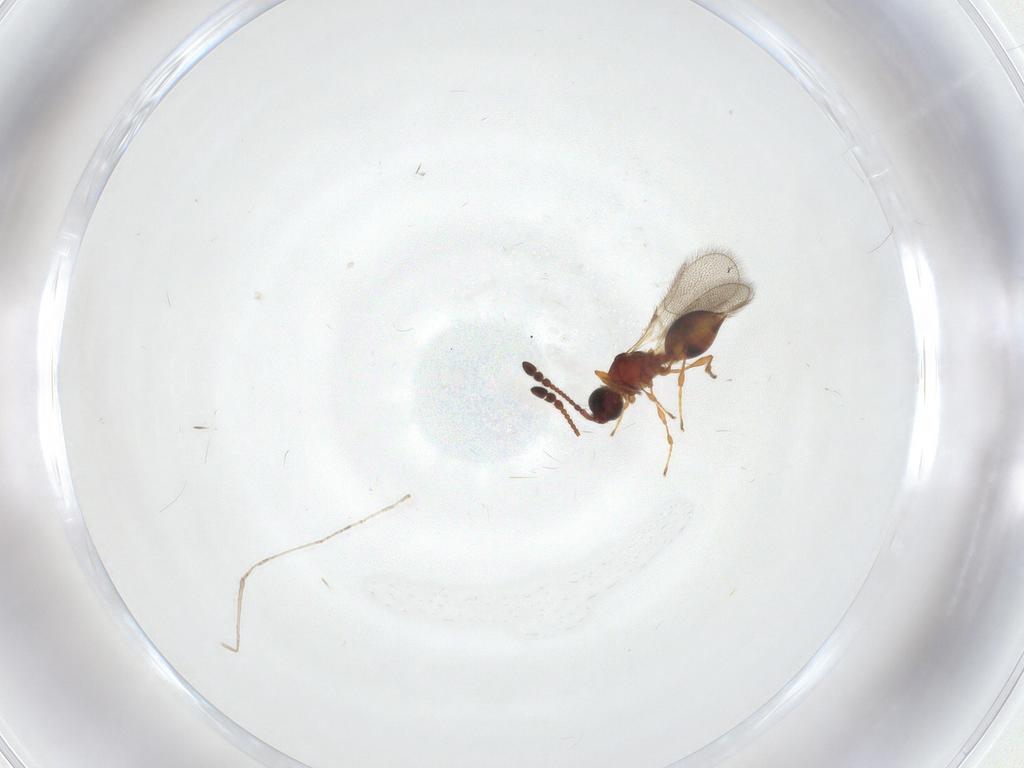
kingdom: Animalia
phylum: Arthropoda
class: Insecta
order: Hymenoptera
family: Diapriidae
